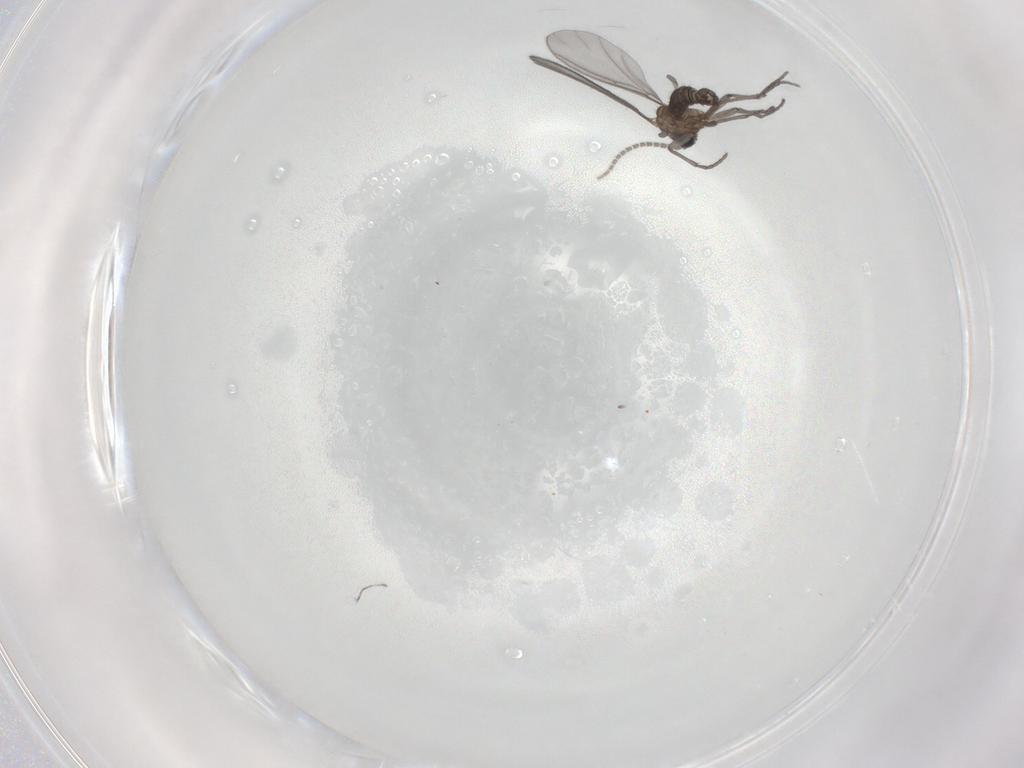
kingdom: Animalia
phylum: Arthropoda
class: Insecta
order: Diptera
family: Sciaridae
